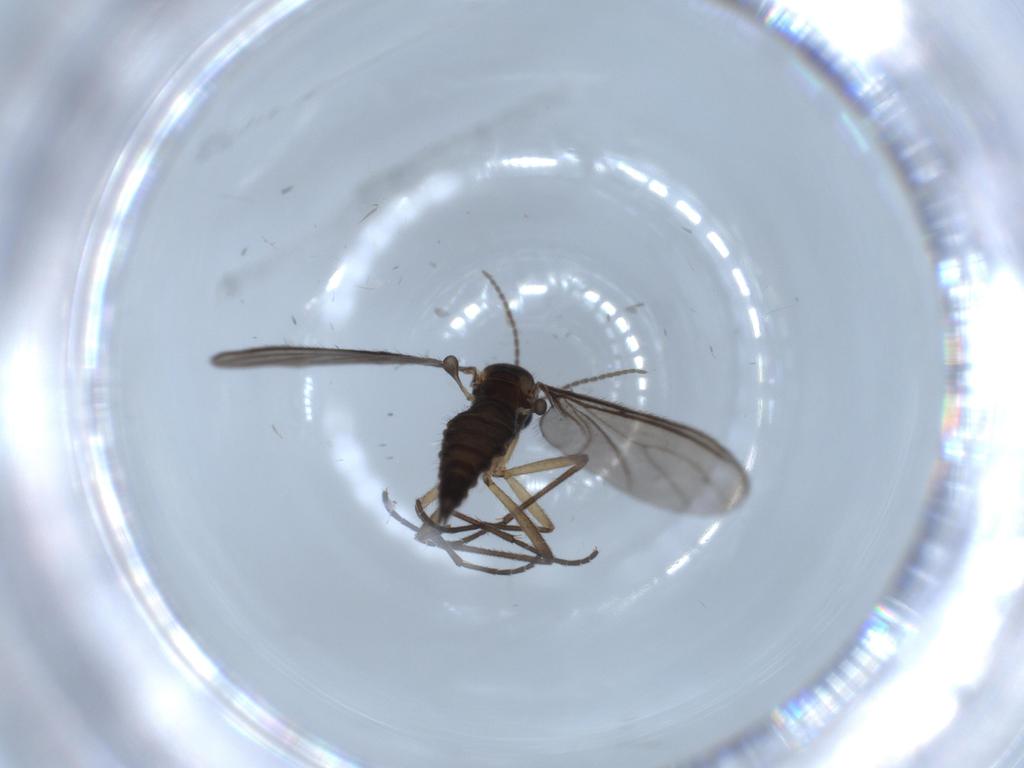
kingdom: Animalia
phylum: Arthropoda
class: Insecta
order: Diptera
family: Sciaridae
